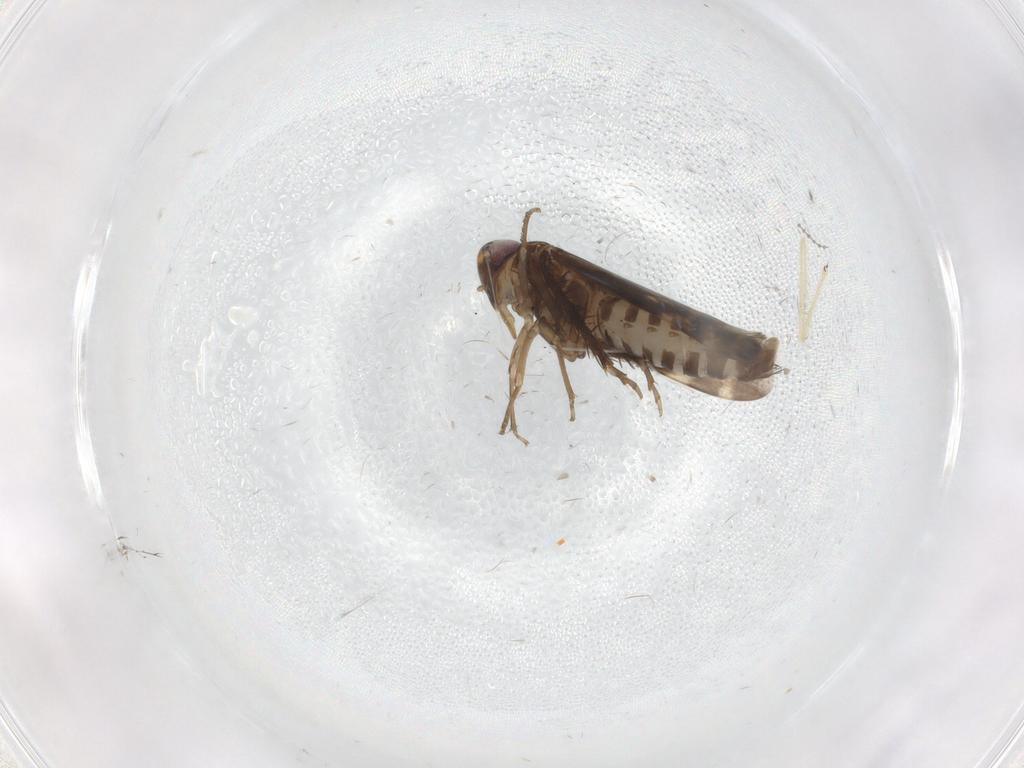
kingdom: Animalia
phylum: Arthropoda
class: Insecta
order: Hemiptera
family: Cicadellidae
